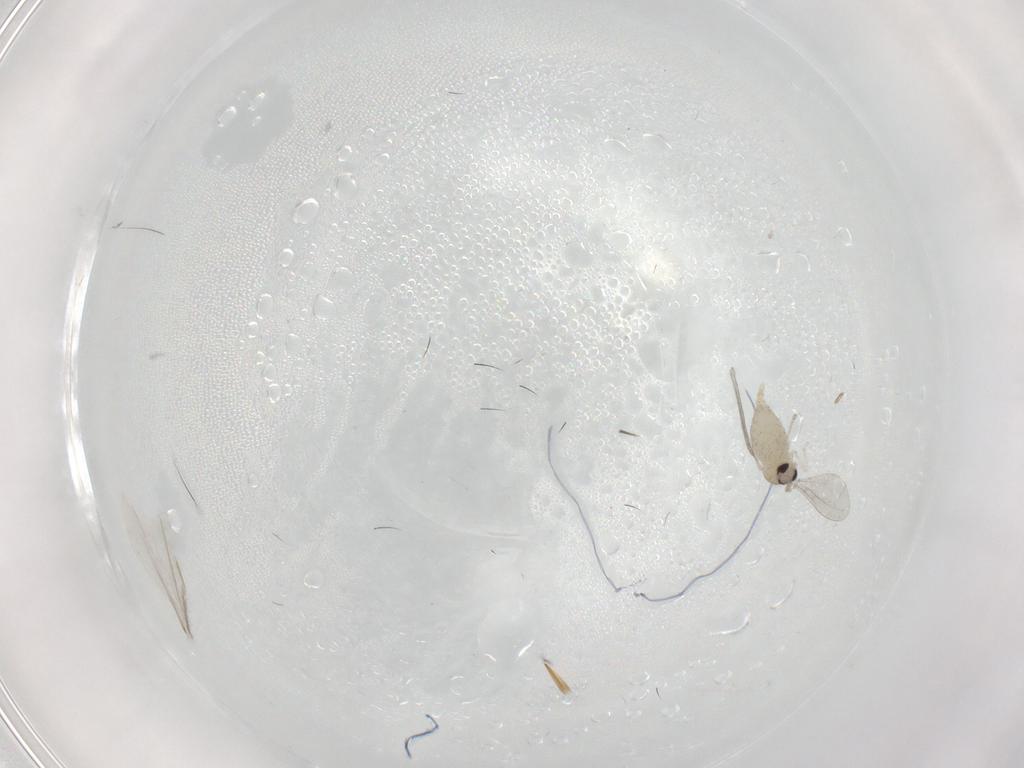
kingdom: Animalia
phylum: Arthropoda
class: Insecta
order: Diptera
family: Cecidomyiidae
